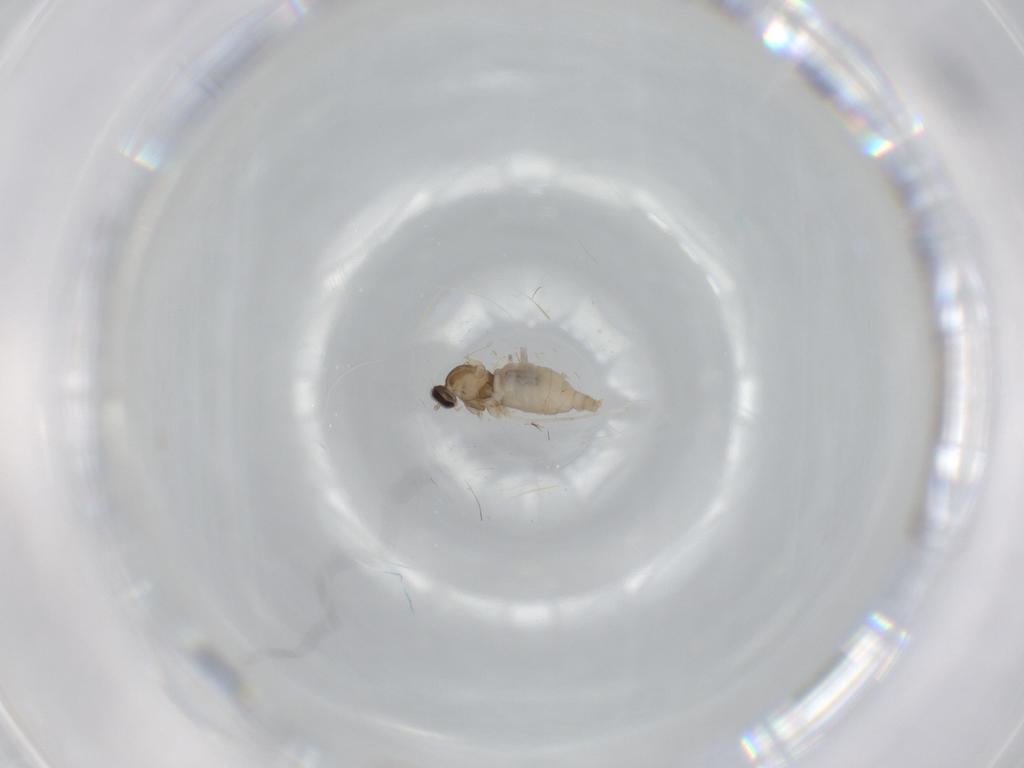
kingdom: Animalia
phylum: Arthropoda
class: Insecta
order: Diptera
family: Cecidomyiidae
